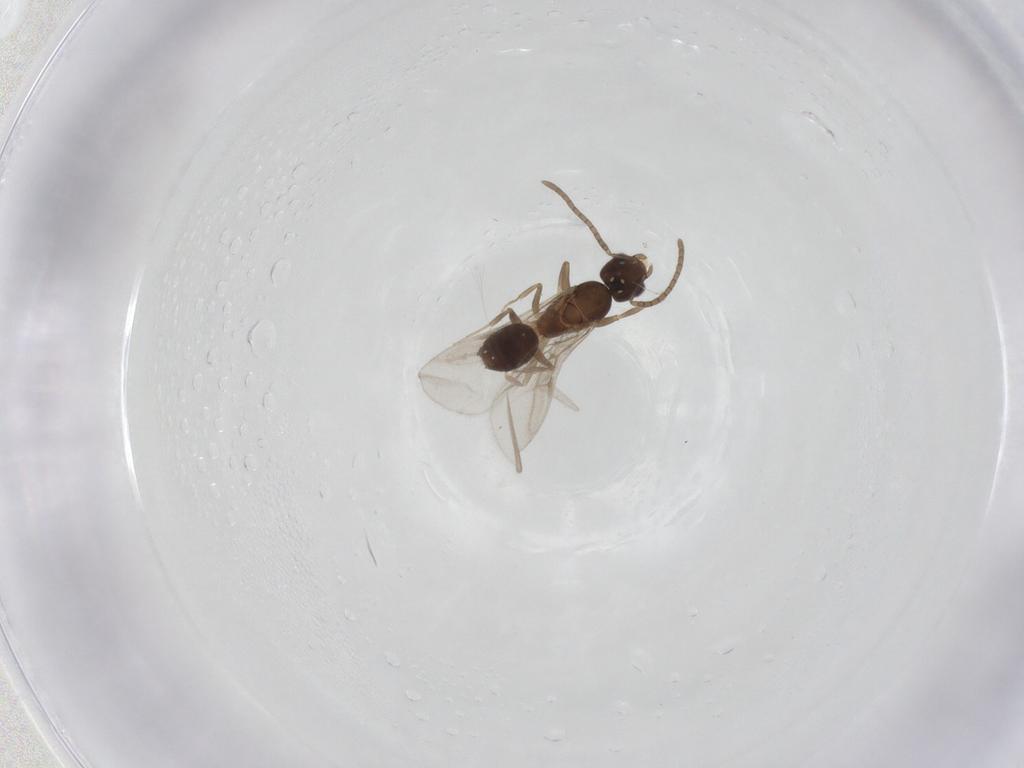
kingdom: Animalia
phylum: Arthropoda
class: Insecta
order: Hymenoptera
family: Formicidae
